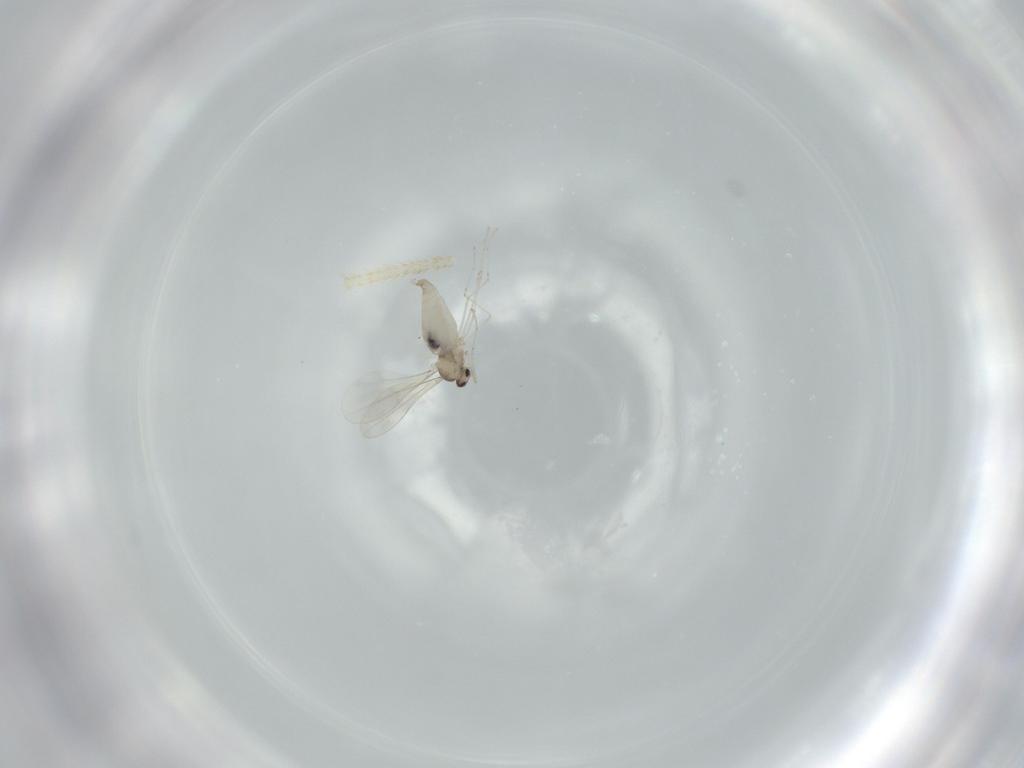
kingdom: Animalia
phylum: Arthropoda
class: Insecta
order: Diptera
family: Cecidomyiidae
